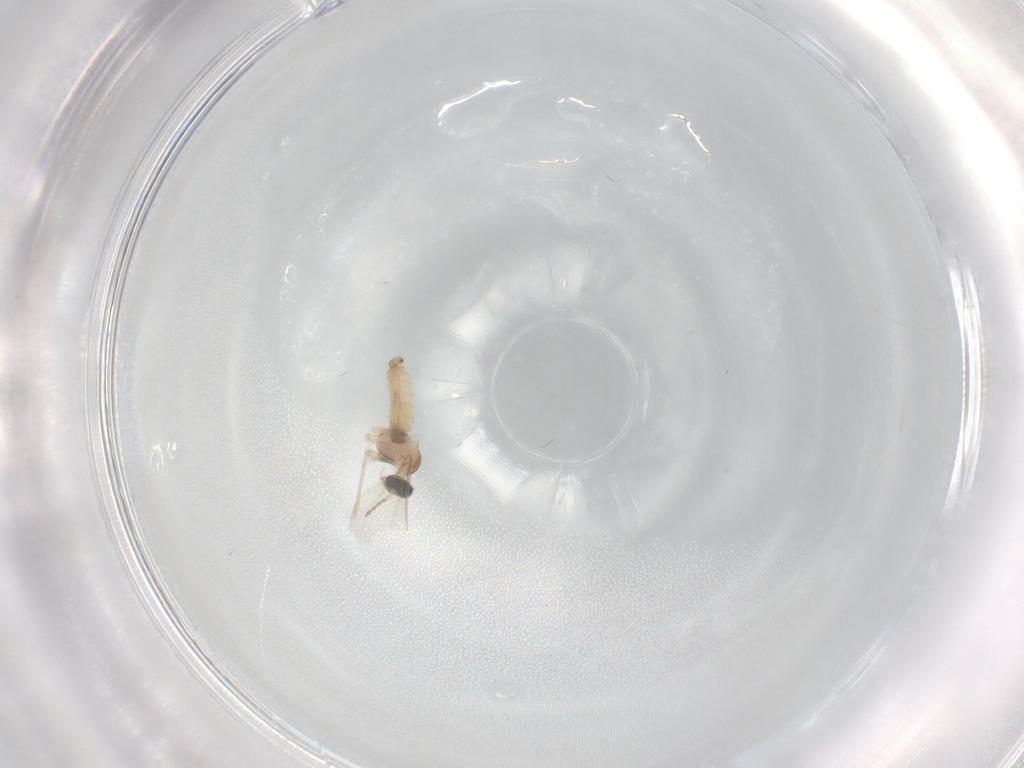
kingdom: Animalia
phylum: Arthropoda
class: Insecta
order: Diptera
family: Cecidomyiidae
